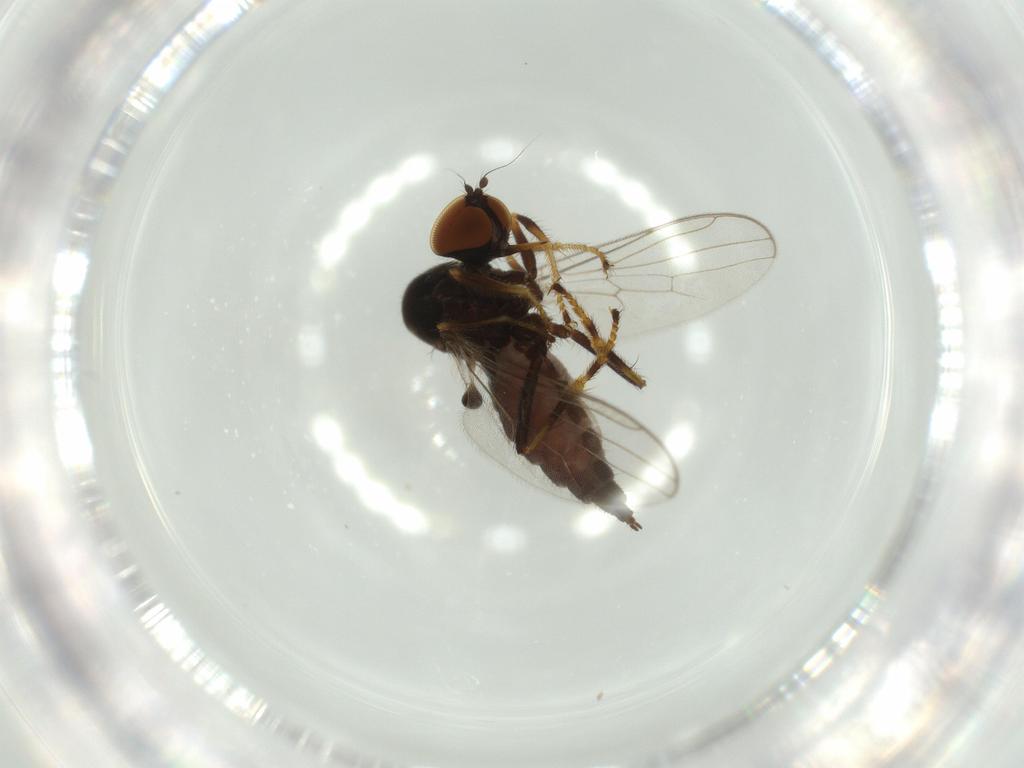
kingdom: Animalia
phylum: Arthropoda
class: Insecta
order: Diptera
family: Hybotidae
